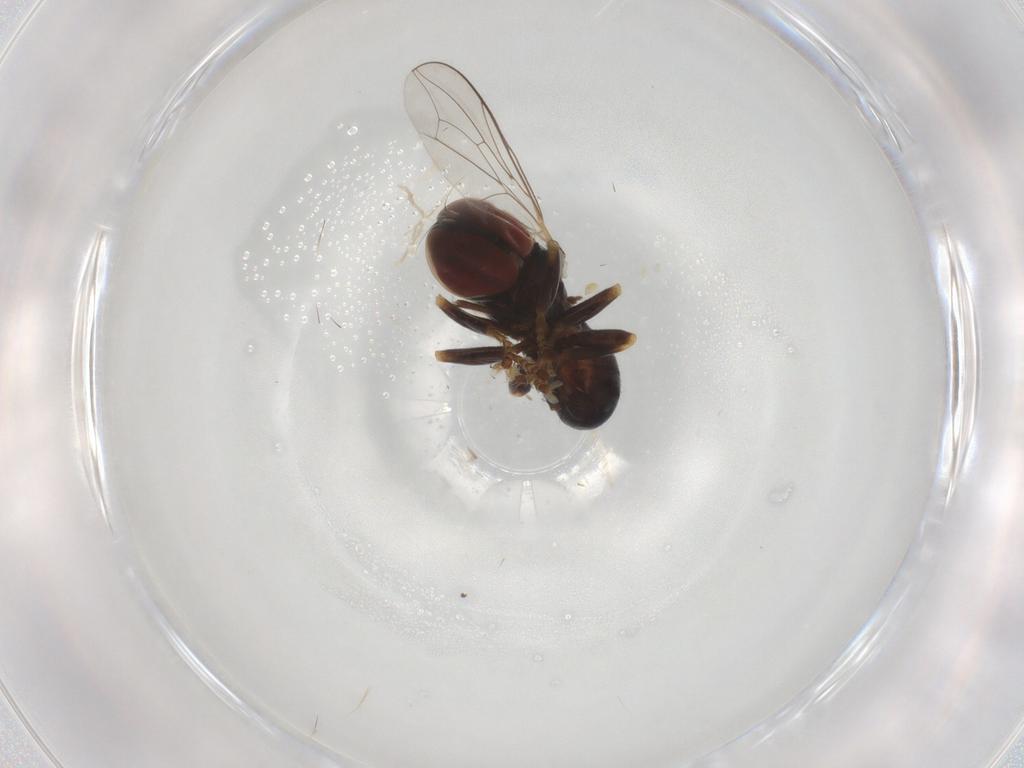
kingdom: Animalia
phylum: Arthropoda
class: Insecta
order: Diptera
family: Pipunculidae
